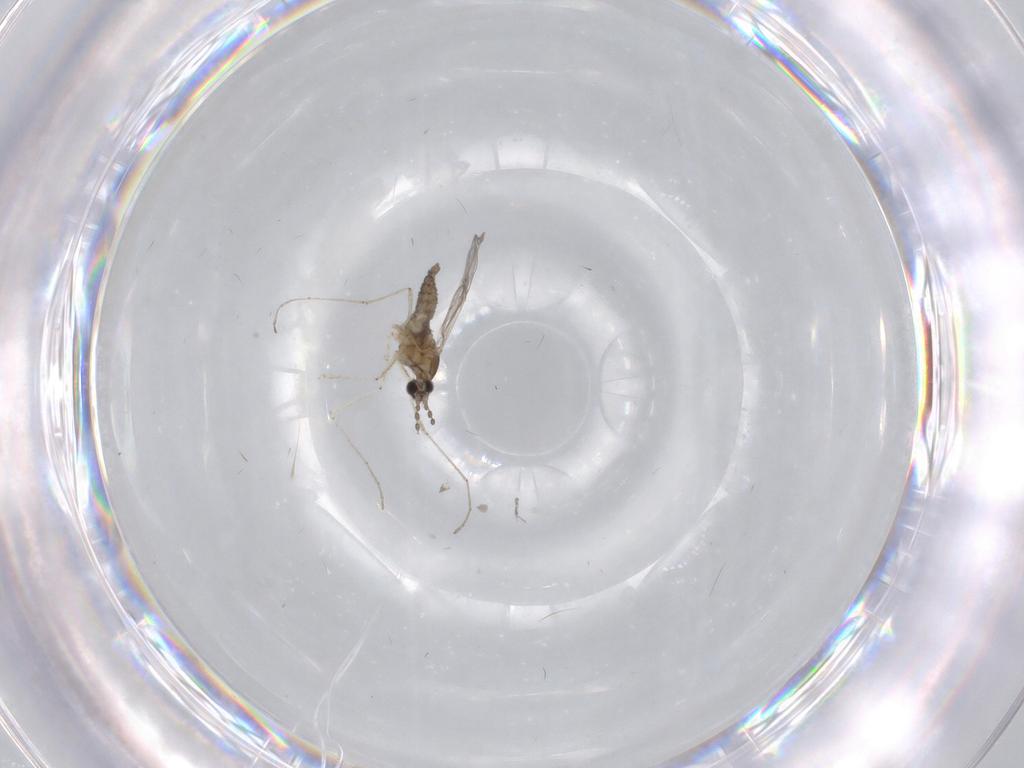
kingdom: Animalia
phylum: Arthropoda
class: Insecta
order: Diptera
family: Cecidomyiidae
